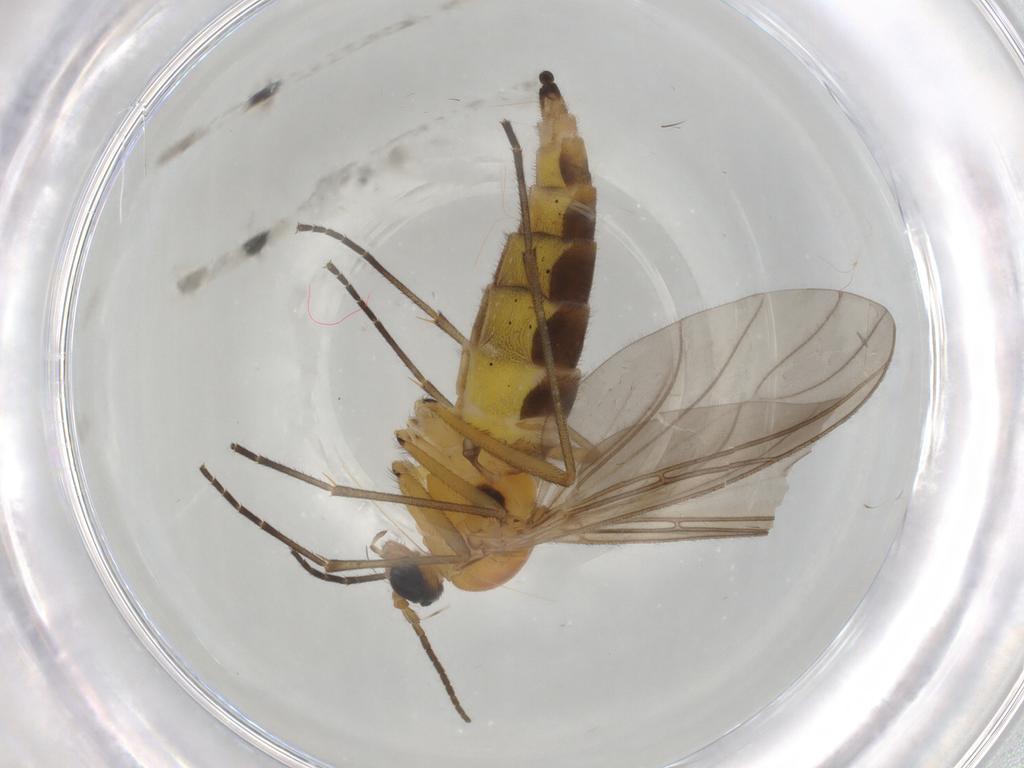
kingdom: Animalia
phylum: Arthropoda
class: Insecta
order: Diptera
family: Sciaridae
